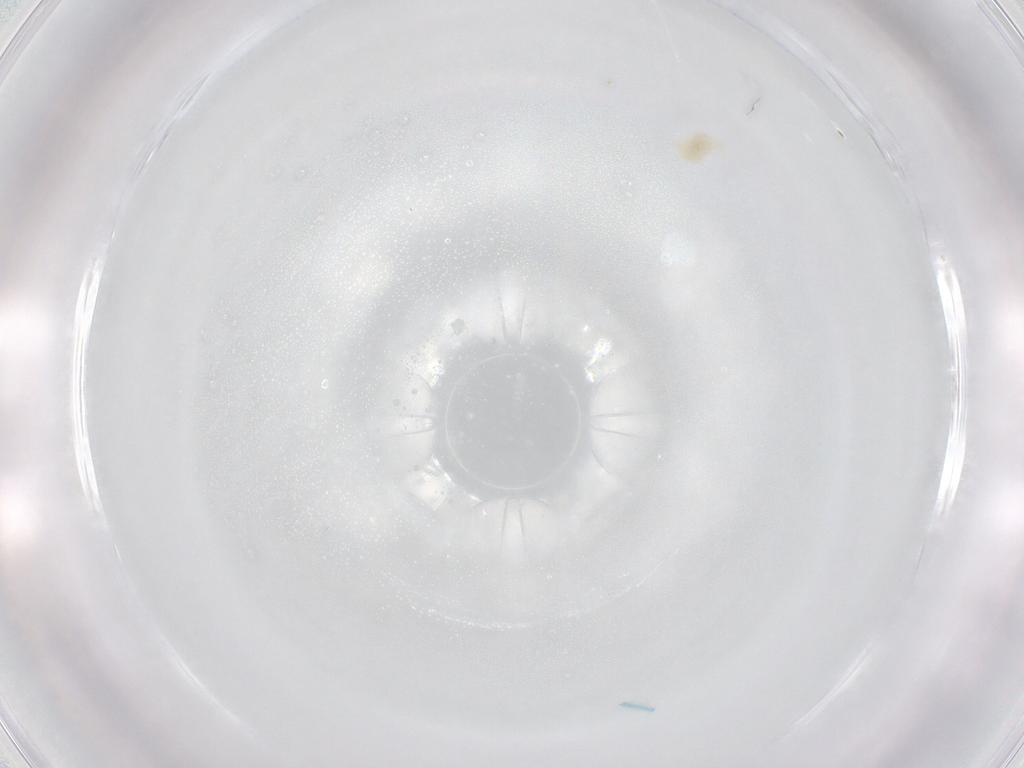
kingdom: Animalia
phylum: Arthropoda
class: Arachnida
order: Trombidiformes
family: Eupodidae
